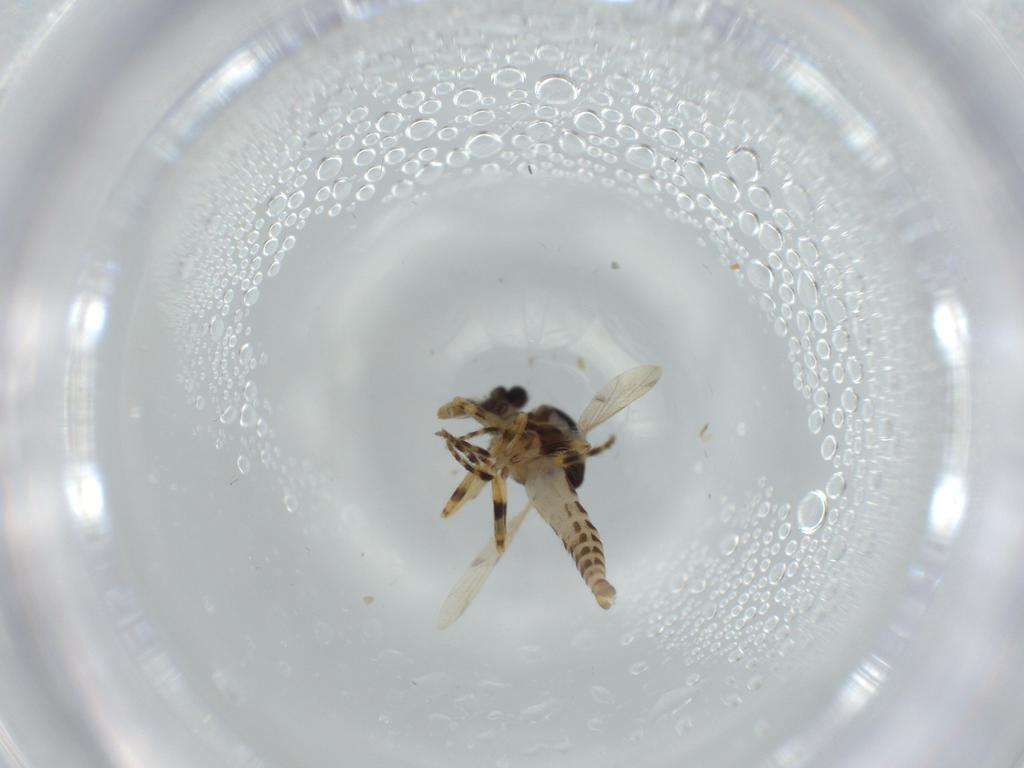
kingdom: Animalia
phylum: Arthropoda
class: Insecta
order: Diptera
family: Ceratopogonidae
